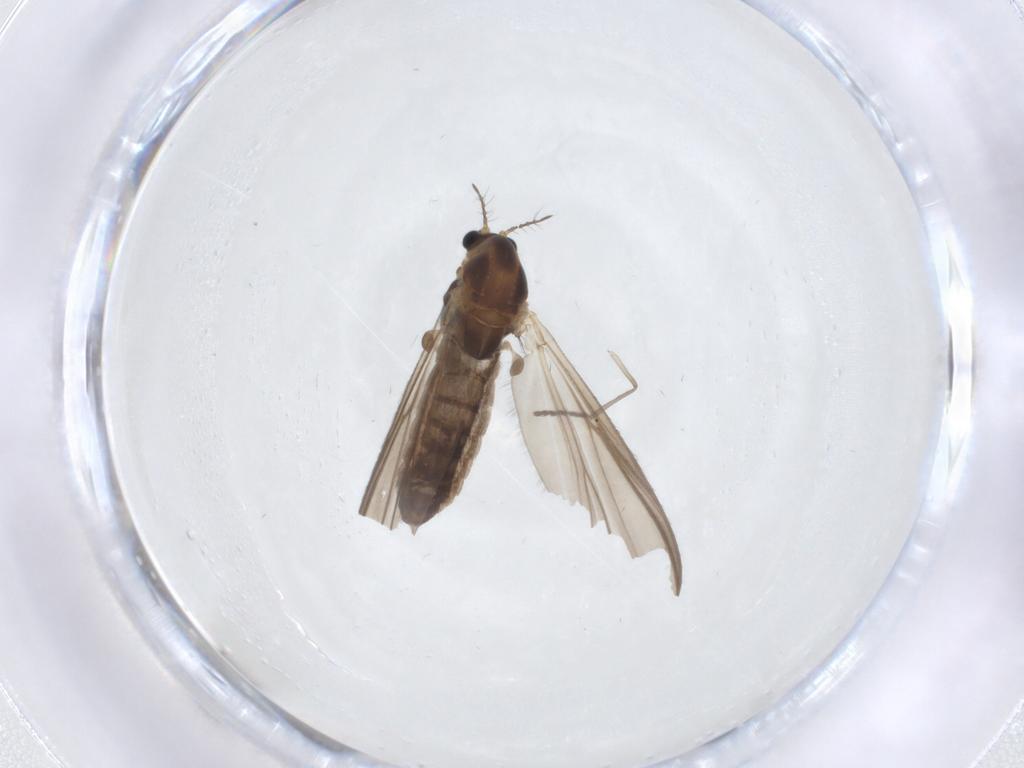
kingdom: Animalia
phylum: Arthropoda
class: Insecta
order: Diptera
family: Chironomidae
